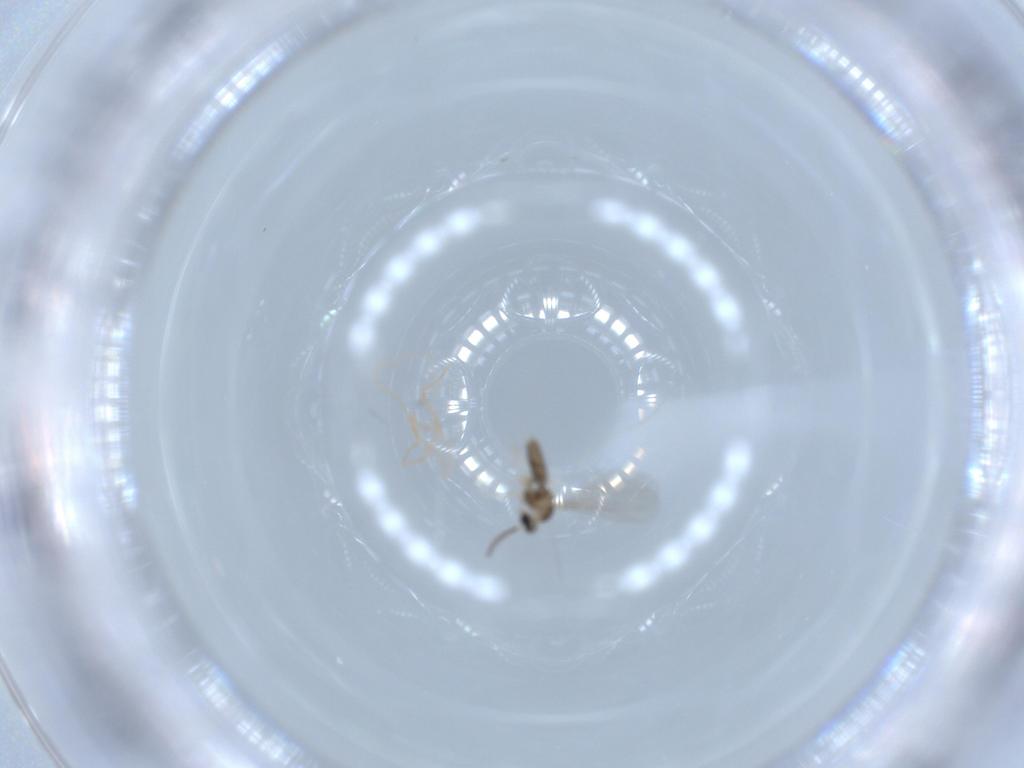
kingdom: Animalia
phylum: Arthropoda
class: Insecta
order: Diptera
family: Cecidomyiidae
